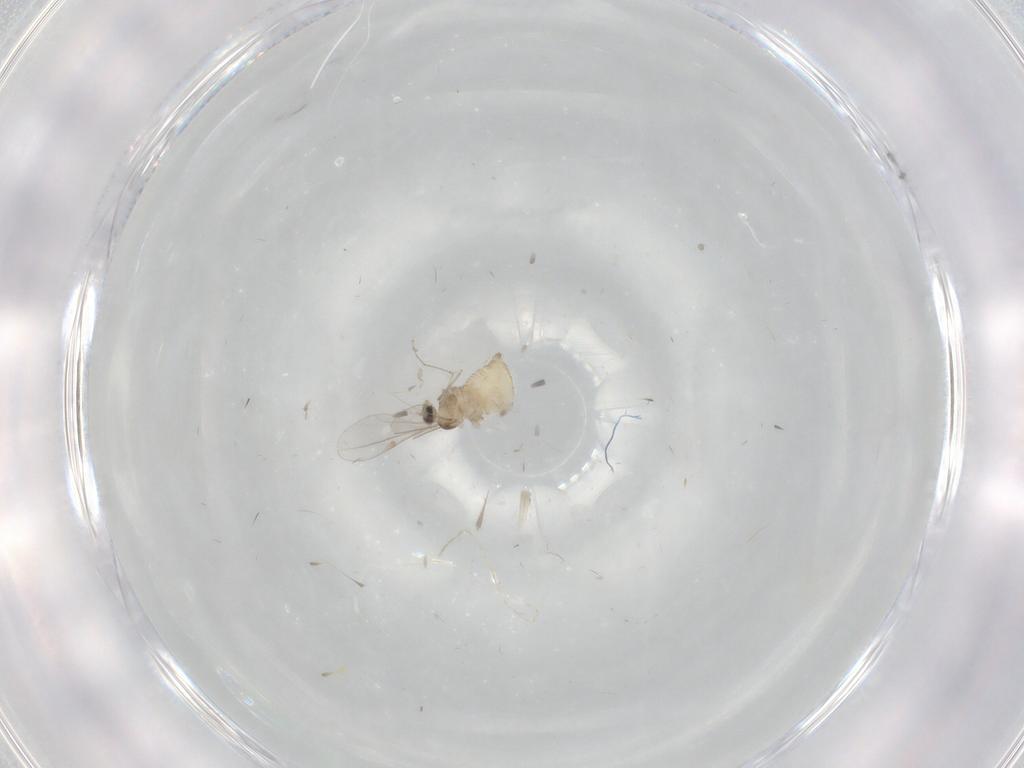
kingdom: Animalia
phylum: Arthropoda
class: Insecta
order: Diptera
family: Cecidomyiidae
